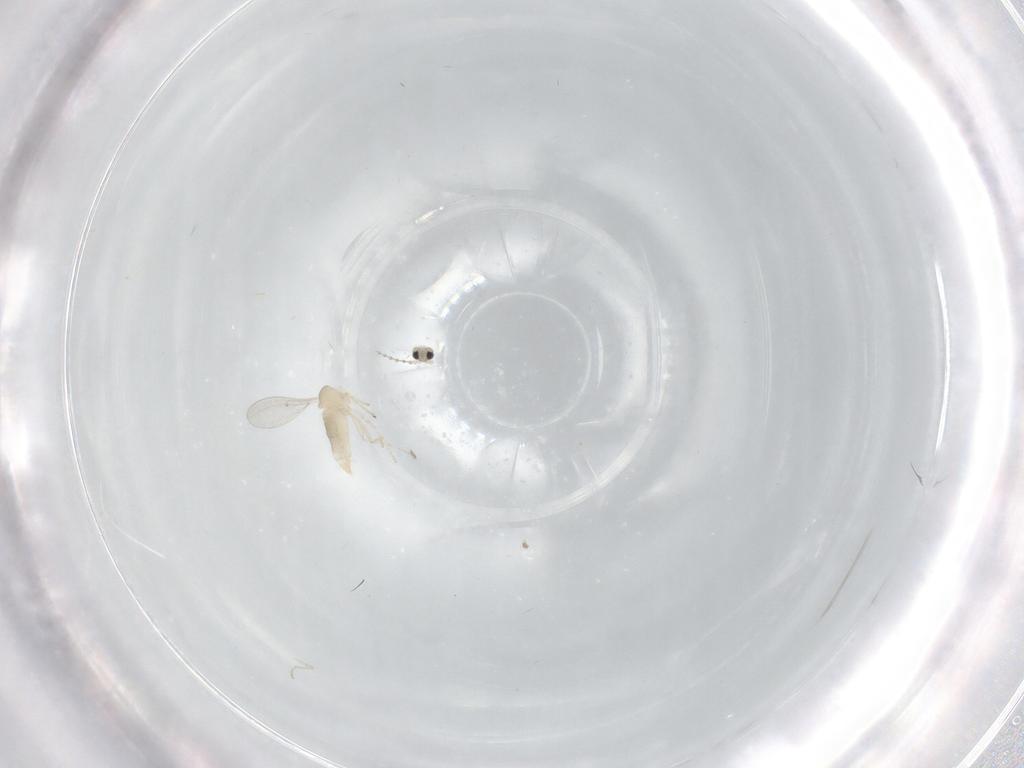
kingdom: Animalia
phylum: Arthropoda
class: Insecta
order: Diptera
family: Cecidomyiidae
